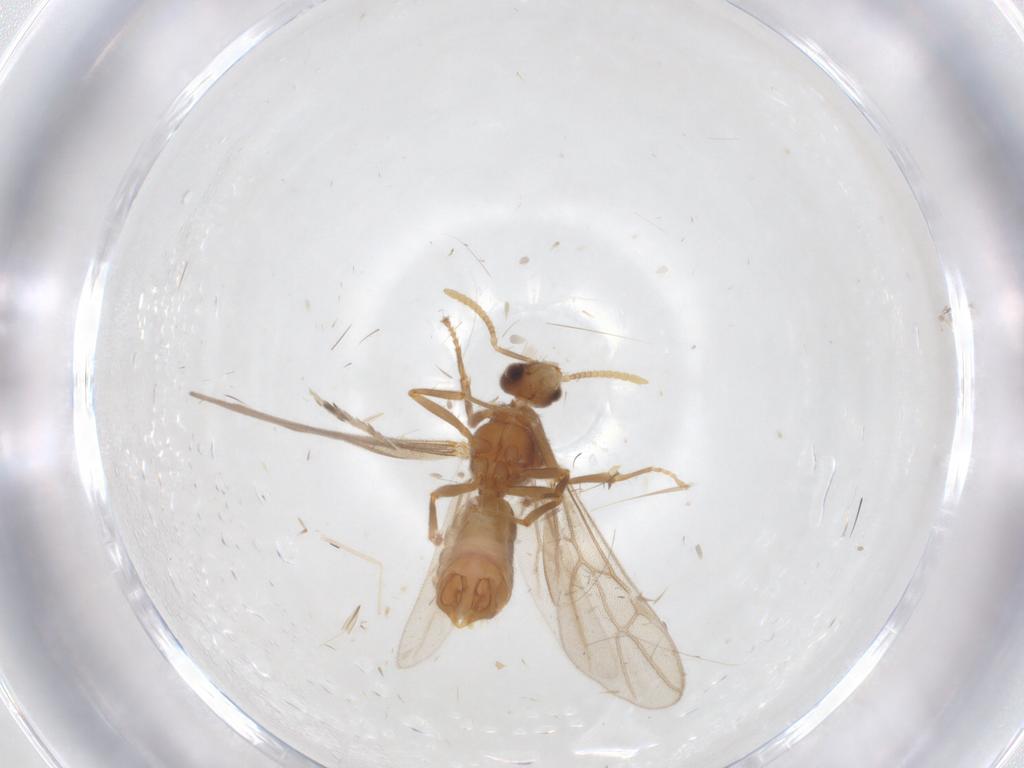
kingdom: Animalia
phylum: Arthropoda
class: Insecta
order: Hymenoptera
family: Formicidae
